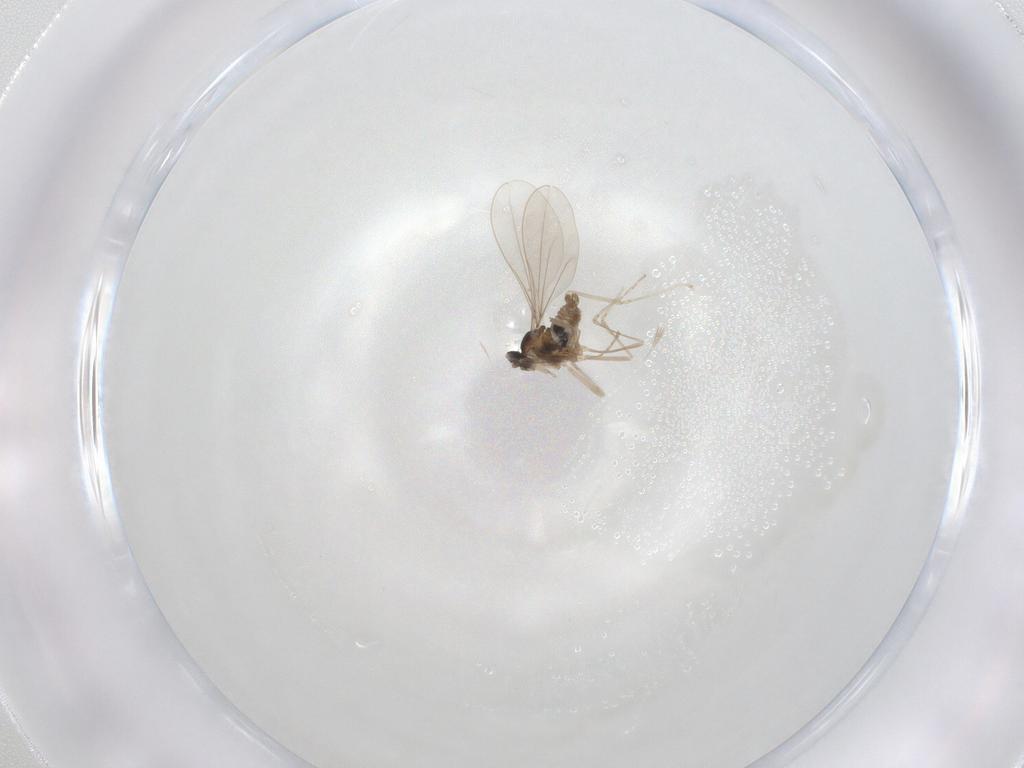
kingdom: Animalia
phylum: Arthropoda
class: Insecta
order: Diptera
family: Cecidomyiidae
